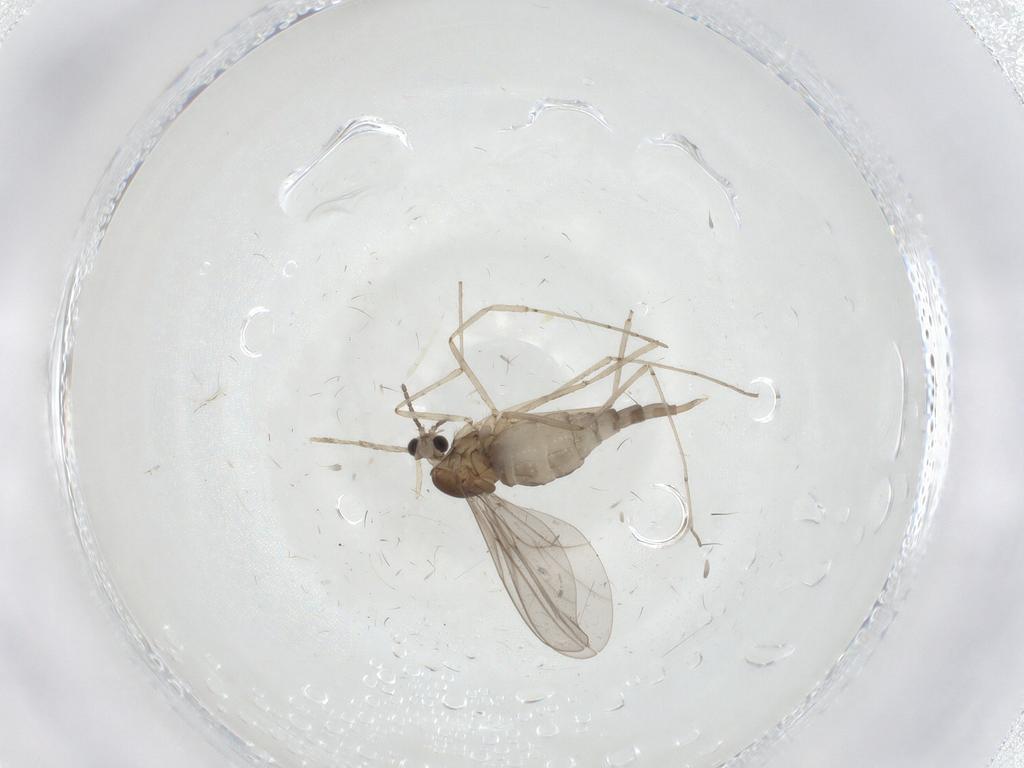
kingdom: Animalia
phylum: Arthropoda
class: Insecta
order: Diptera
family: Cecidomyiidae
